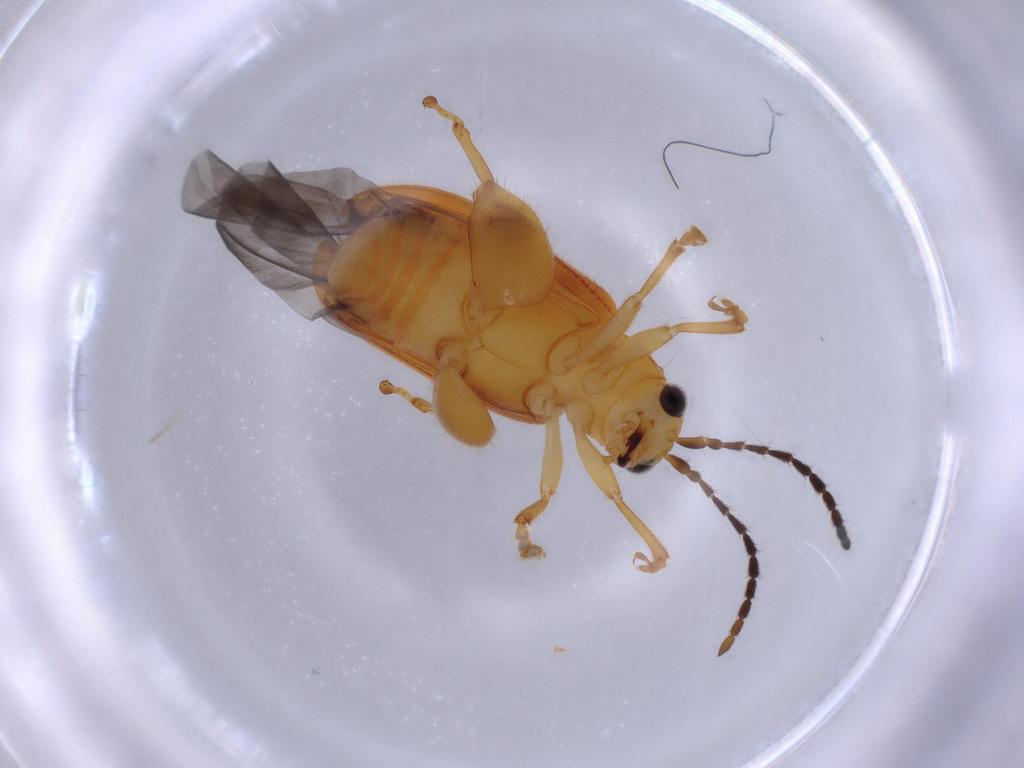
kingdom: Animalia
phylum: Arthropoda
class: Insecta
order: Coleoptera
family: Chrysomelidae
